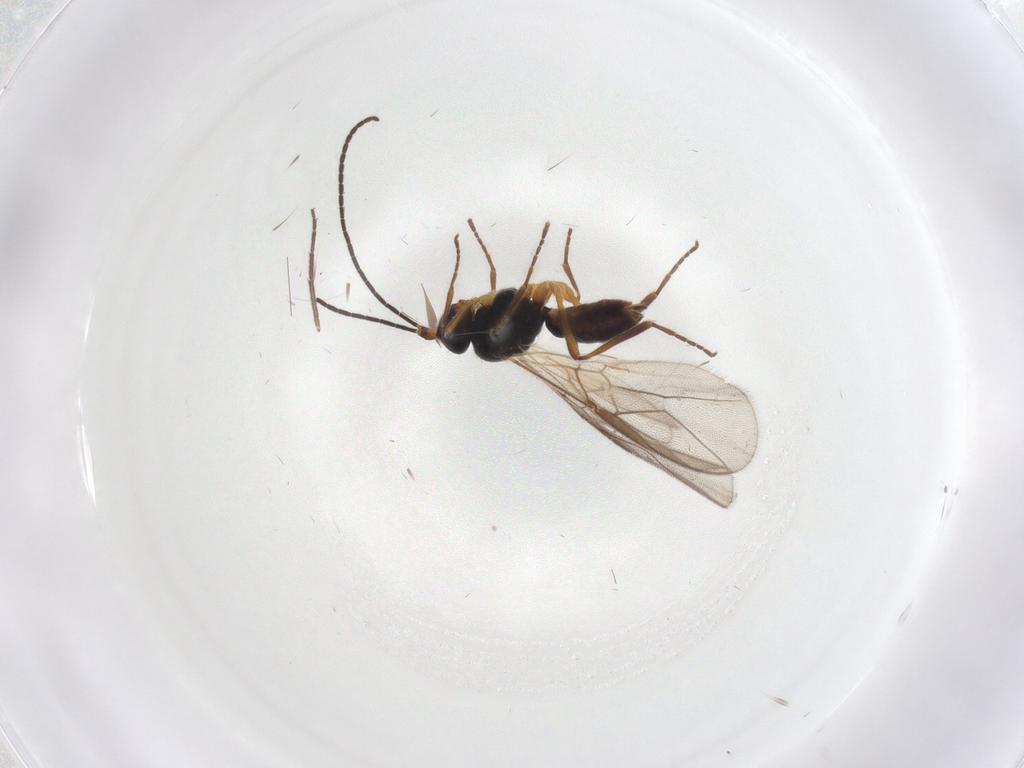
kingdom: Animalia
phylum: Arthropoda
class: Insecta
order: Hymenoptera
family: Braconidae
